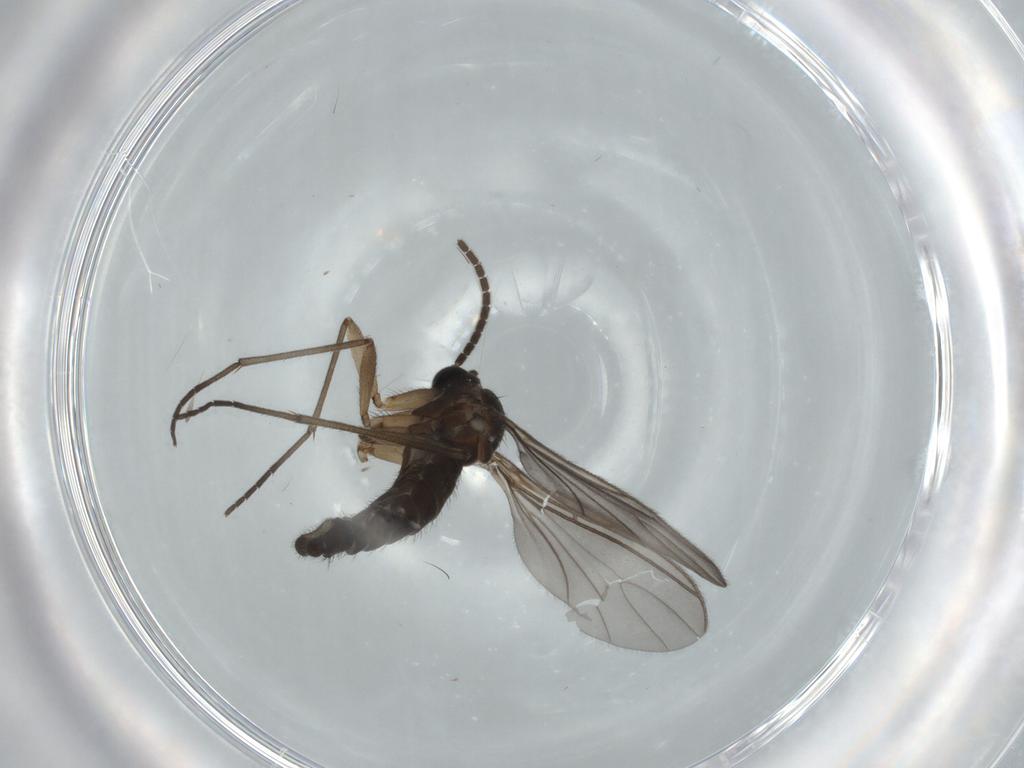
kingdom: Animalia
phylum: Arthropoda
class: Insecta
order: Diptera
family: Sciaridae
